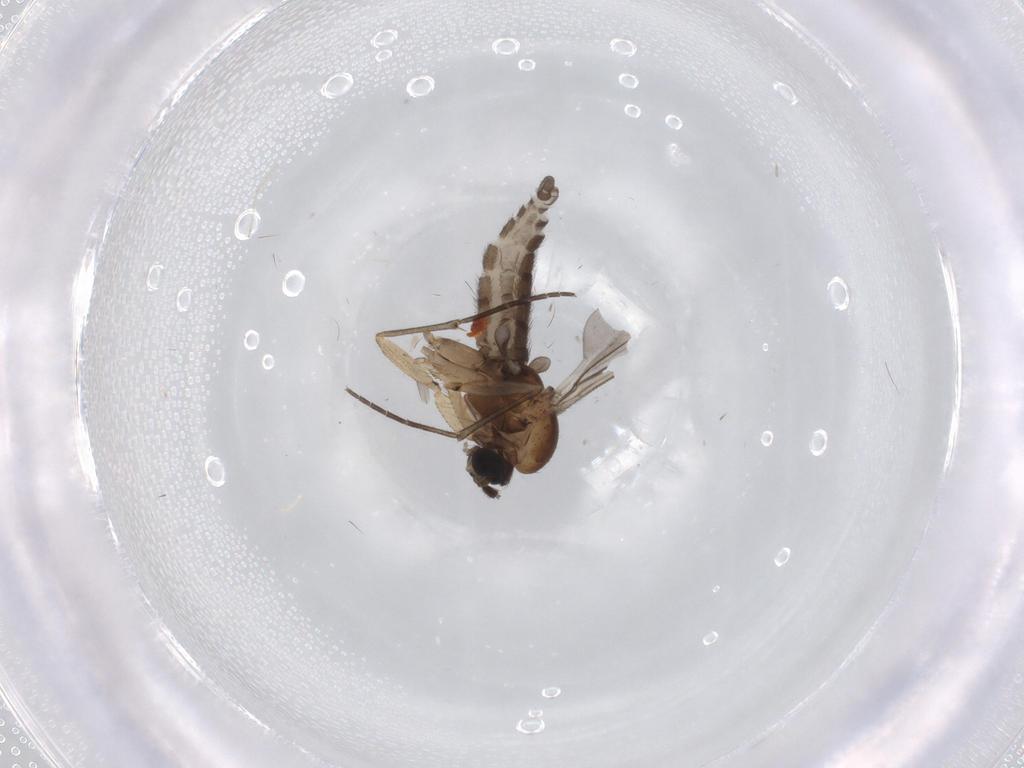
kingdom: Animalia
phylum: Arthropoda
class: Insecta
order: Diptera
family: Sciaridae
